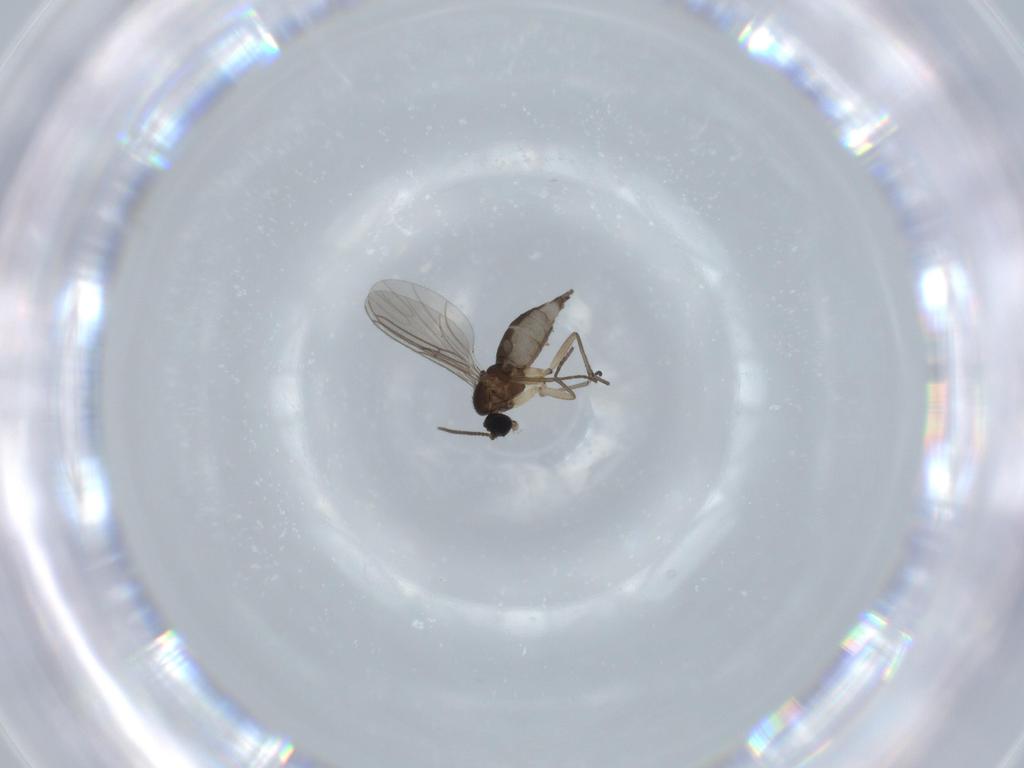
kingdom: Animalia
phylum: Arthropoda
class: Insecta
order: Diptera
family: Sciaridae
